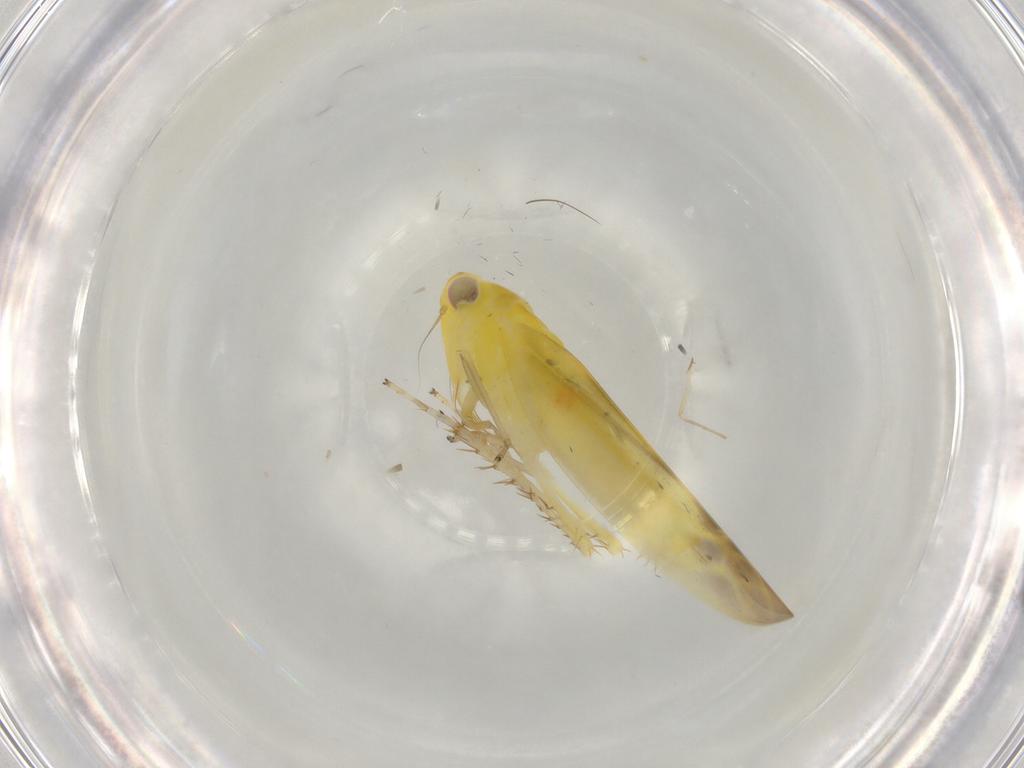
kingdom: Animalia
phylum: Arthropoda
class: Insecta
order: Hemiptera
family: Cicadellidae
